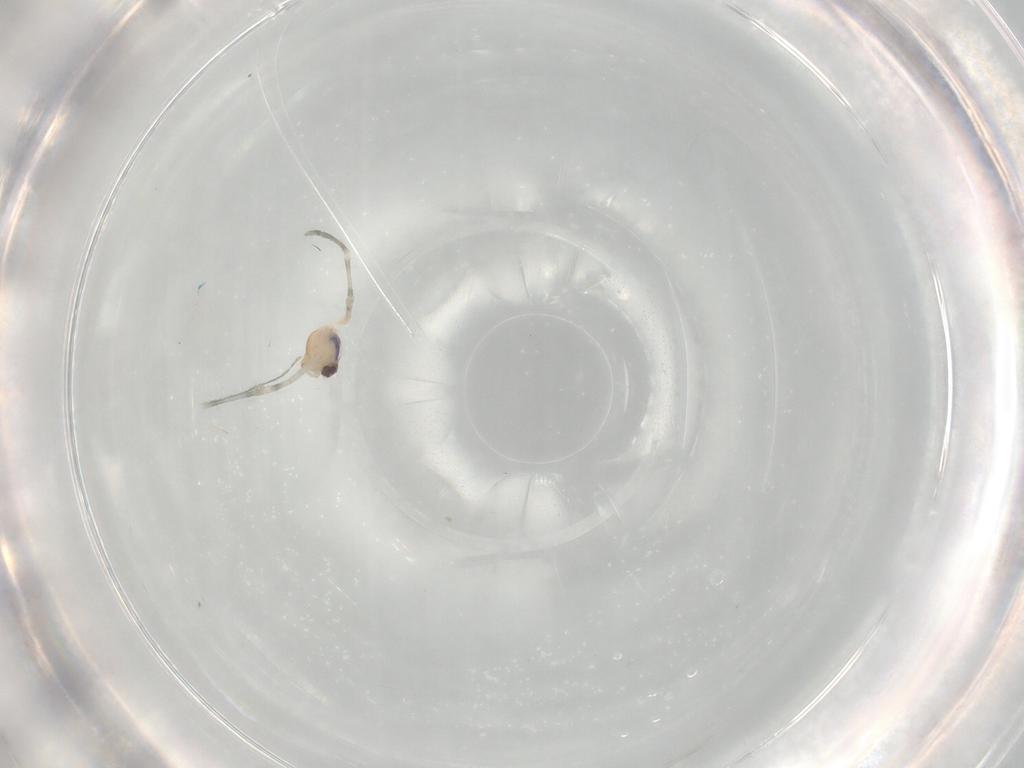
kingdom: Animalia
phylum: Arthropoda
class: Arachnida
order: Araneae
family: Pholcidae
